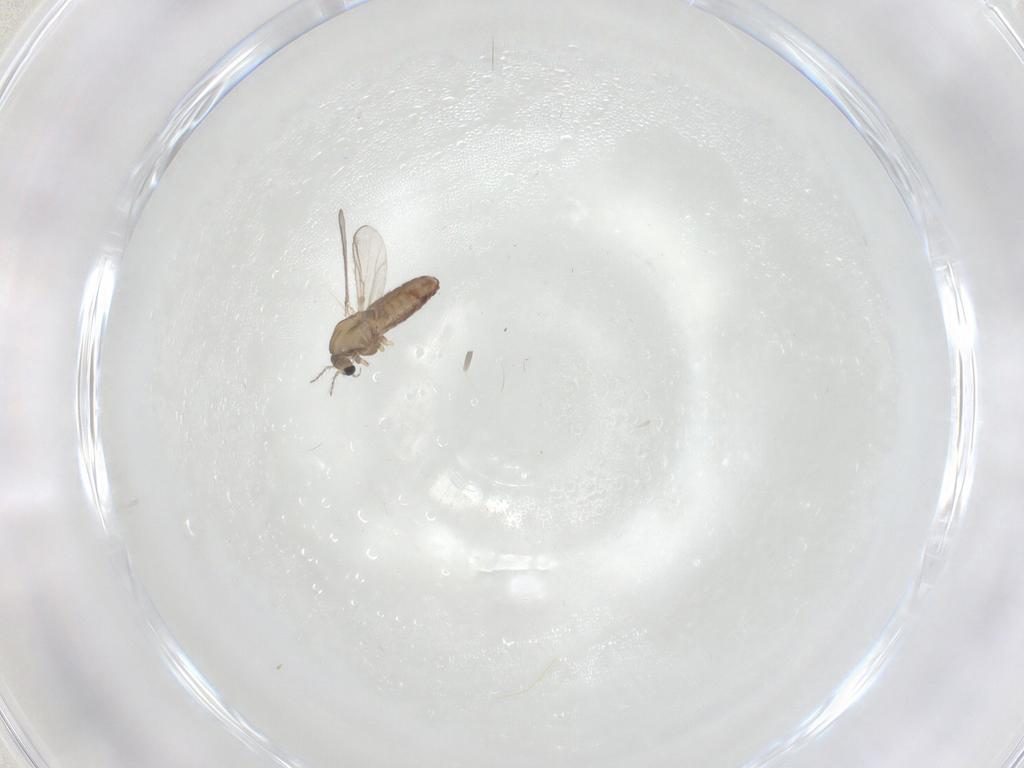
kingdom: Animalia
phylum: Arthropoda
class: Insecta
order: Diptera
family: Chironomidae
